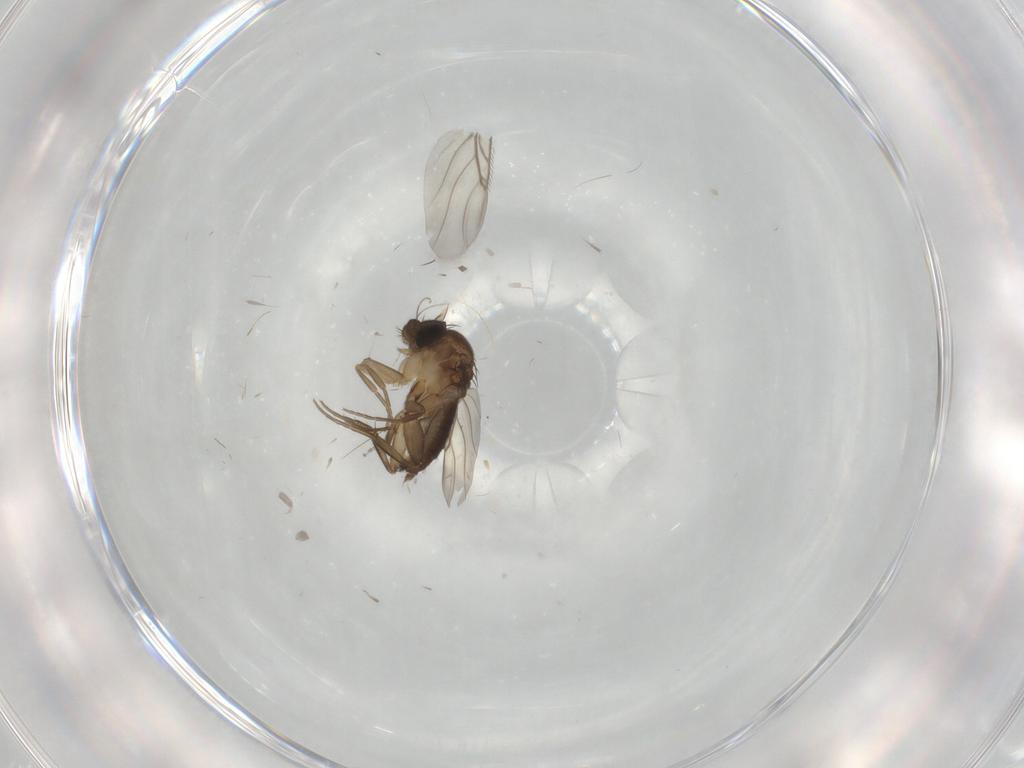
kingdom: Animalia
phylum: Arthropoda
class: Insecta
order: Diptera
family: Phoridae
